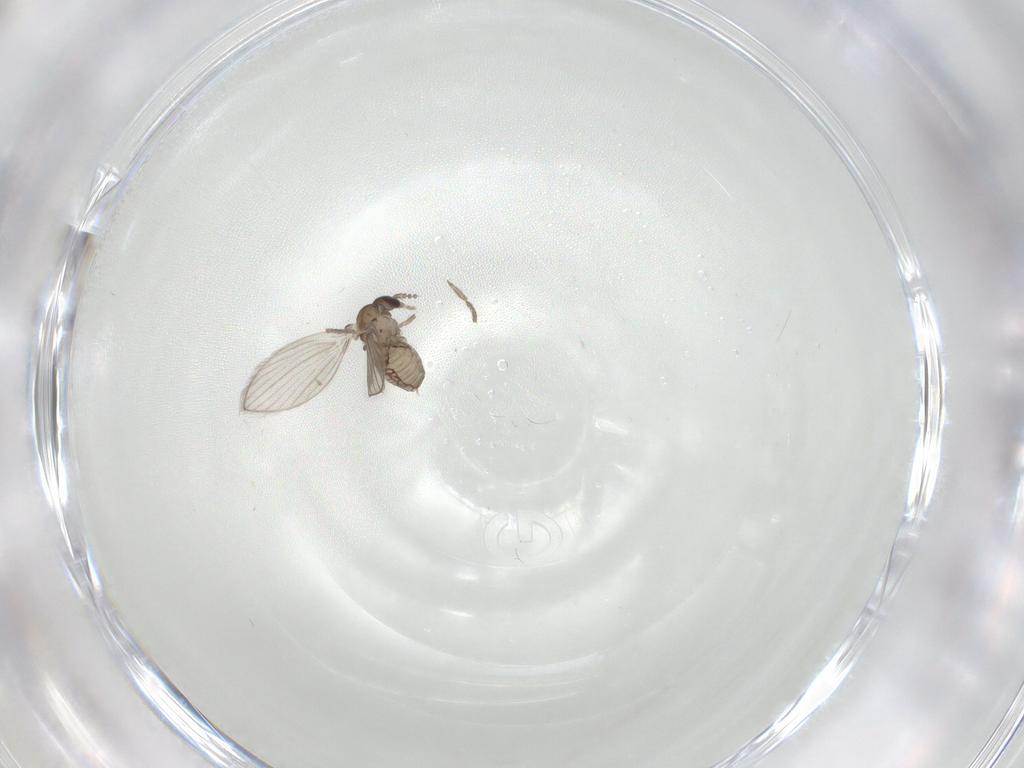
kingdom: Animalia
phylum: Arthropoda
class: Insecta
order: Diptera
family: Psychodidae
